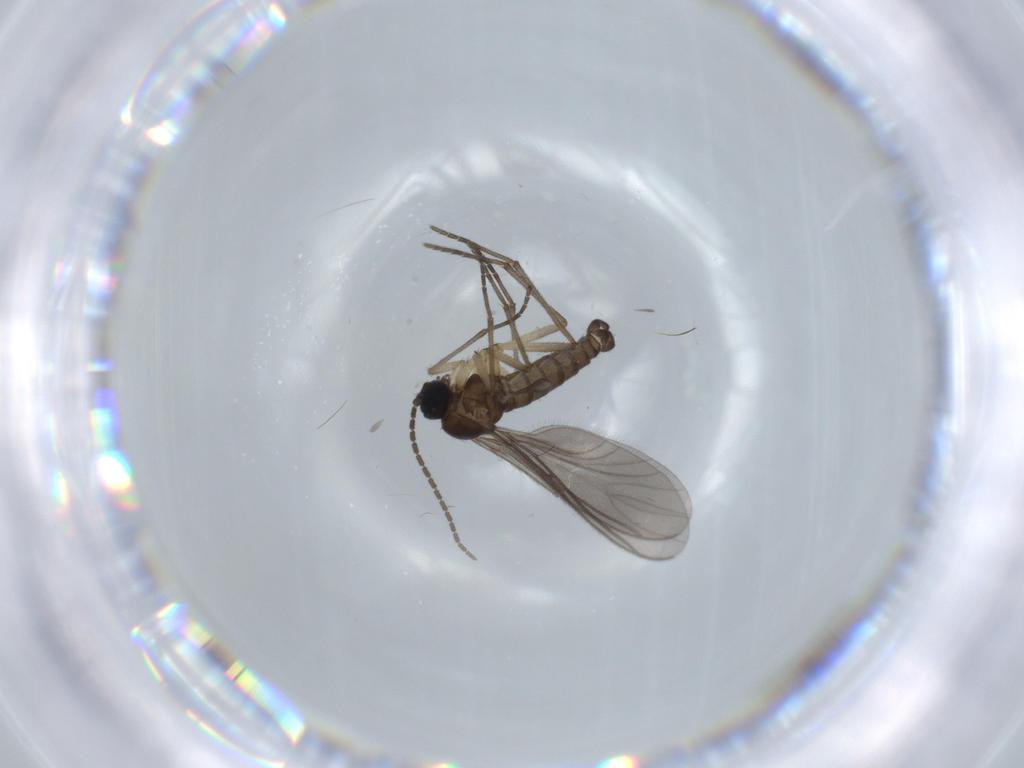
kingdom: Animalia
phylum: Arthropoda
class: Insecta
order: Diptera
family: Sciaridae
